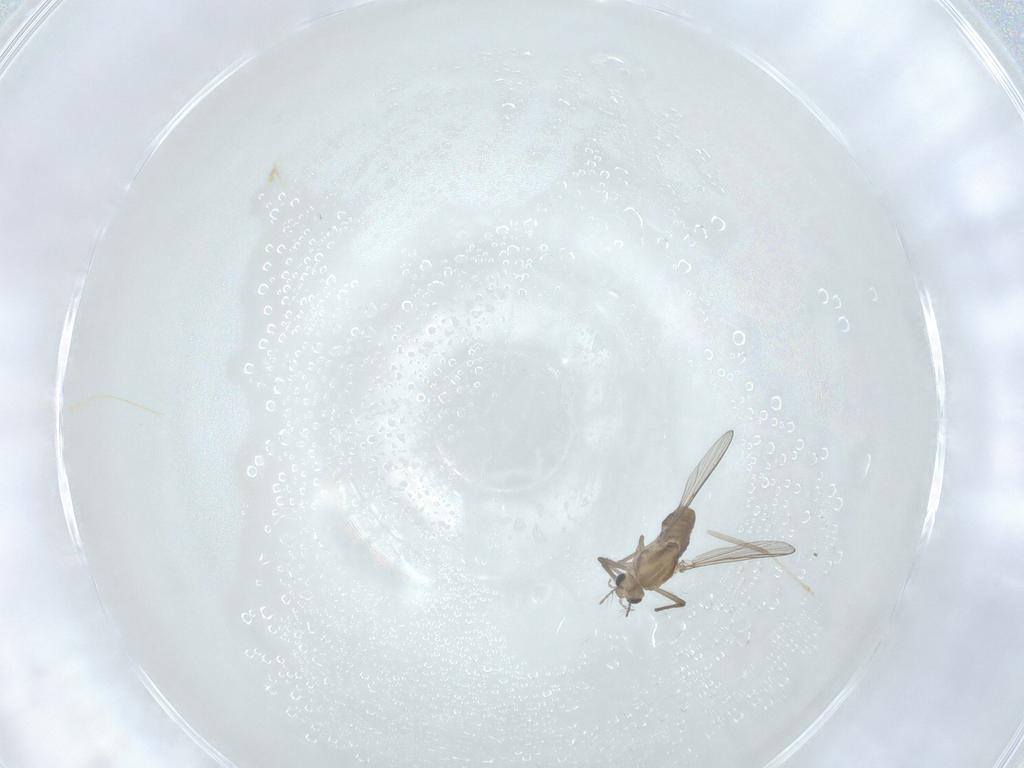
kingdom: Animalia
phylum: Arthropoda
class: Insecta
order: Diptera
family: Chironomidae
